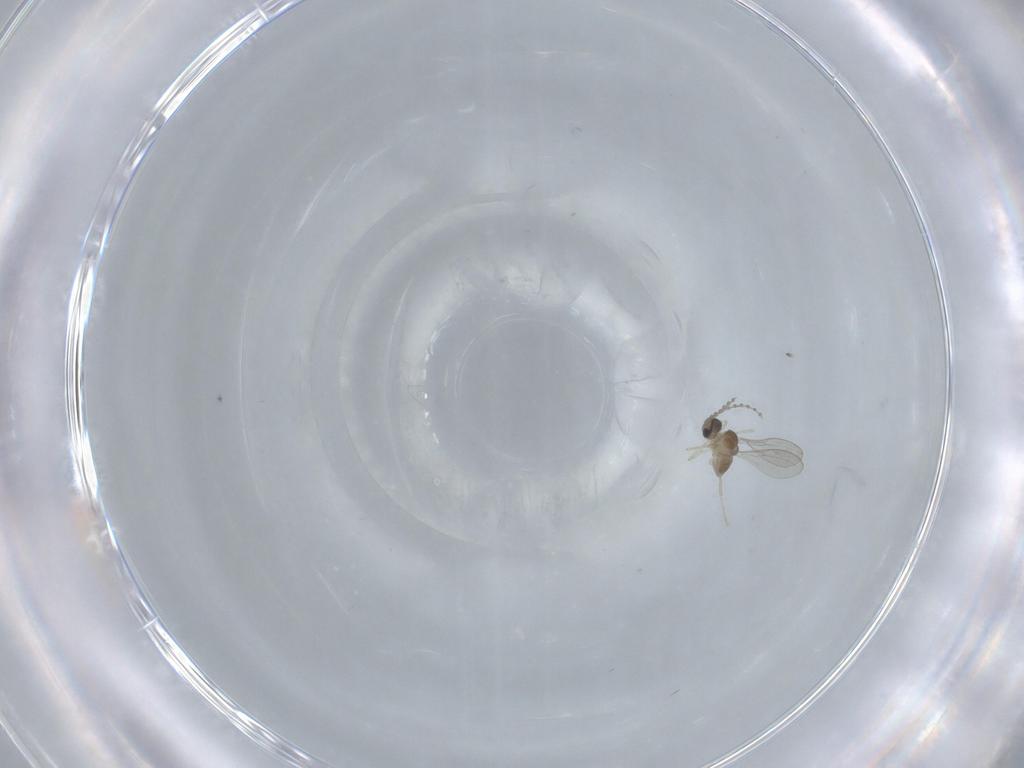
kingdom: Animalia
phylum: Arthropoda
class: Insecta
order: Diptera
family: Cecidomyiidae
